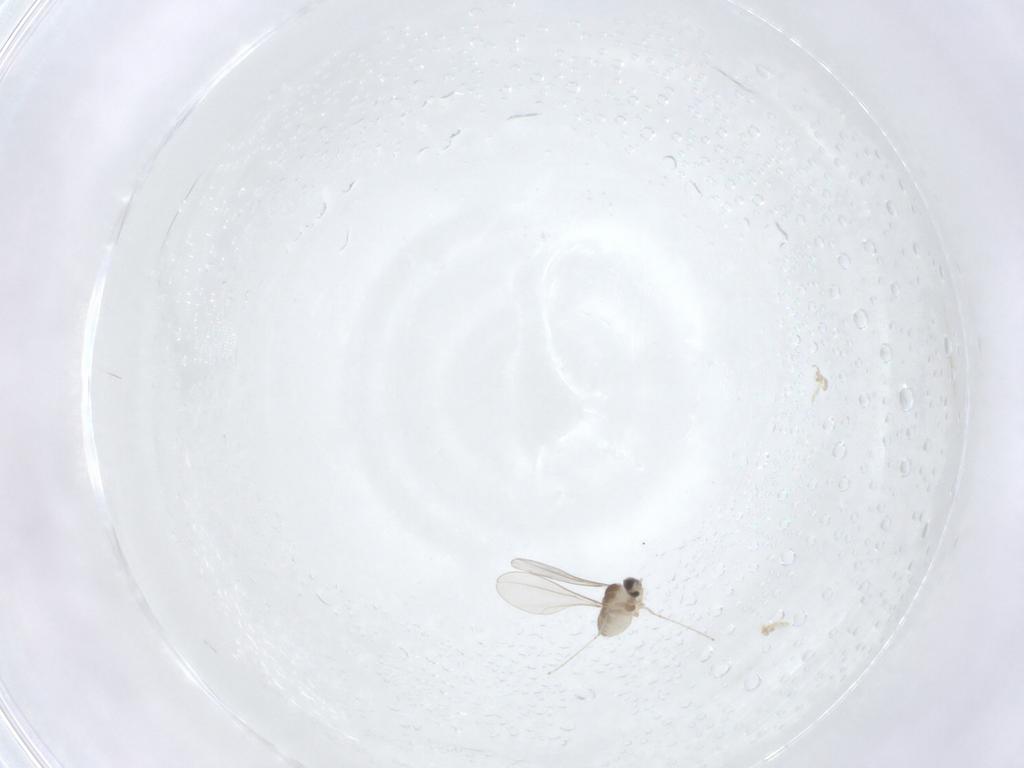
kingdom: Animalia
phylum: Arthropoda
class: Insecta
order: Diptera
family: Cecidomyiidae
